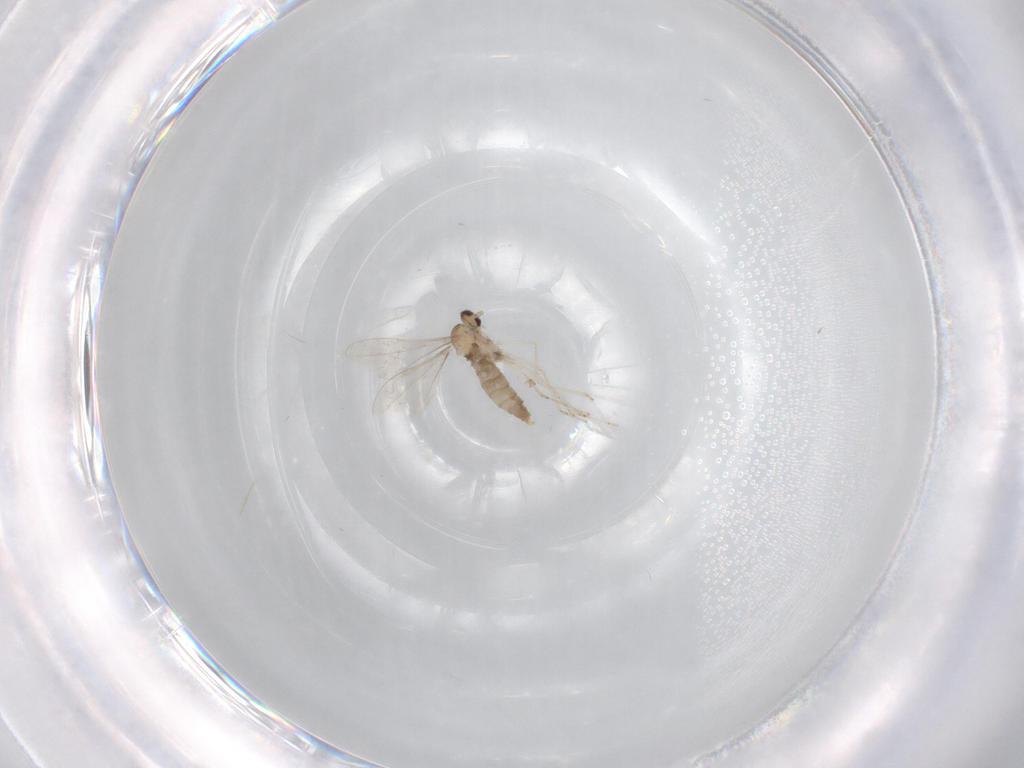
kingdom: Animalia
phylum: Arthropoda
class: Insecta
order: Diptera
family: Cecidomyiidae
